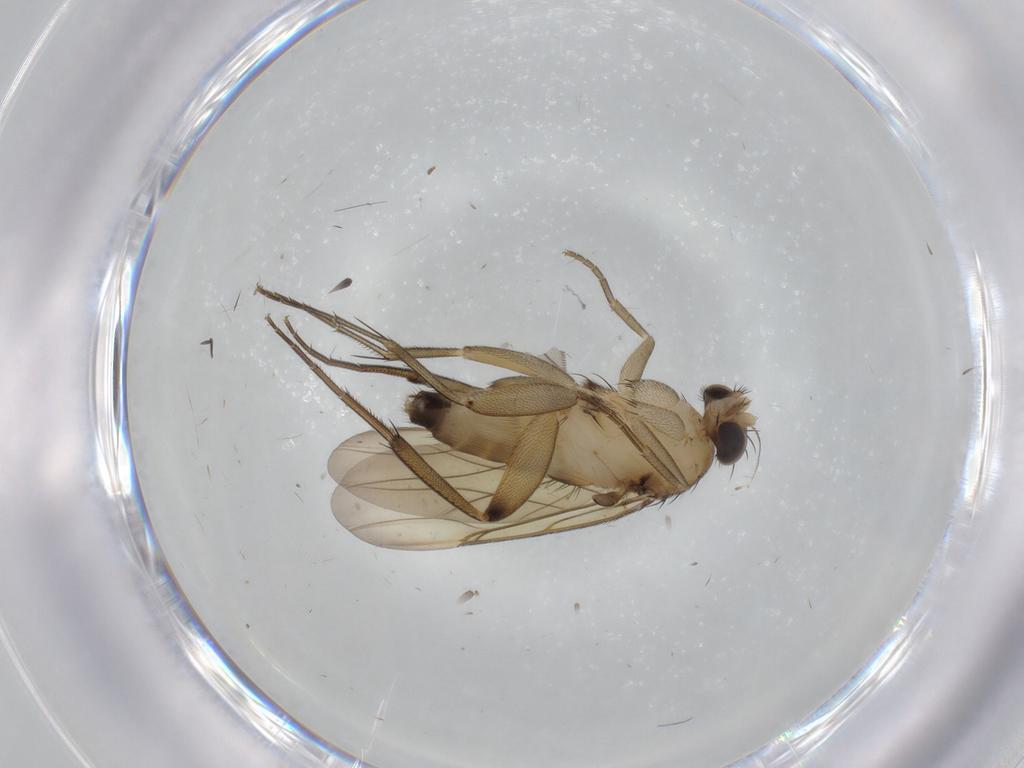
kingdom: Animalia
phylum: Arthropoda
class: Insecta
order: Diptera
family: Phoridae
